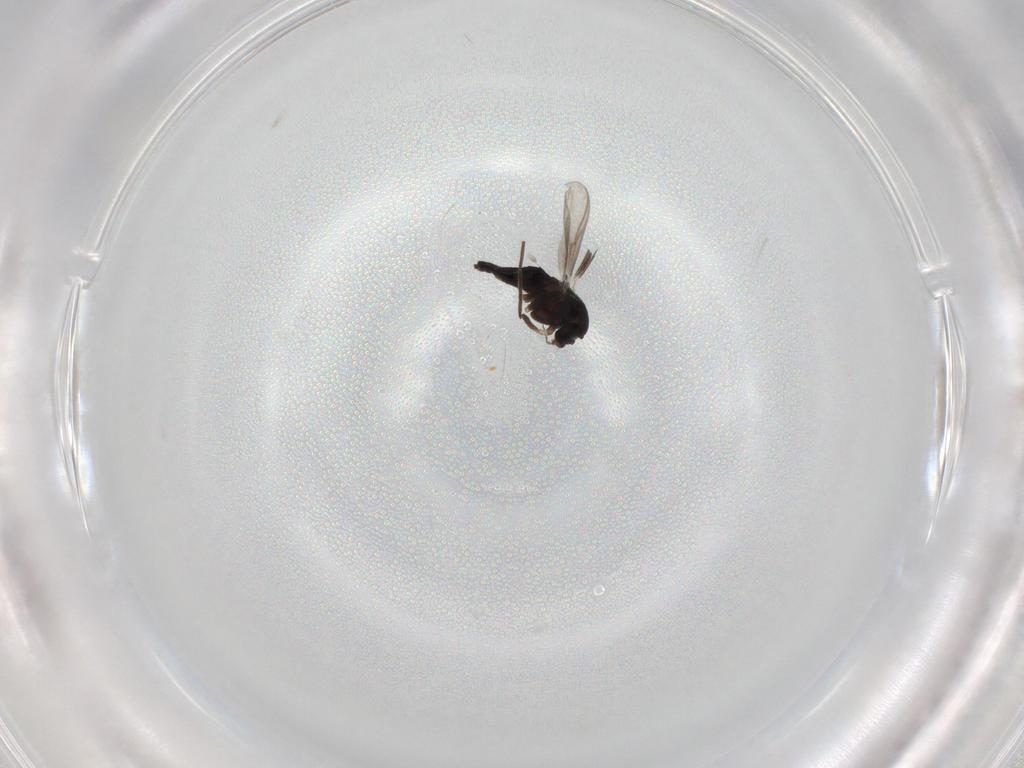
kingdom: Animalia
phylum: Arthropoda
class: Insecta
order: Diptera
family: Chironomidae
